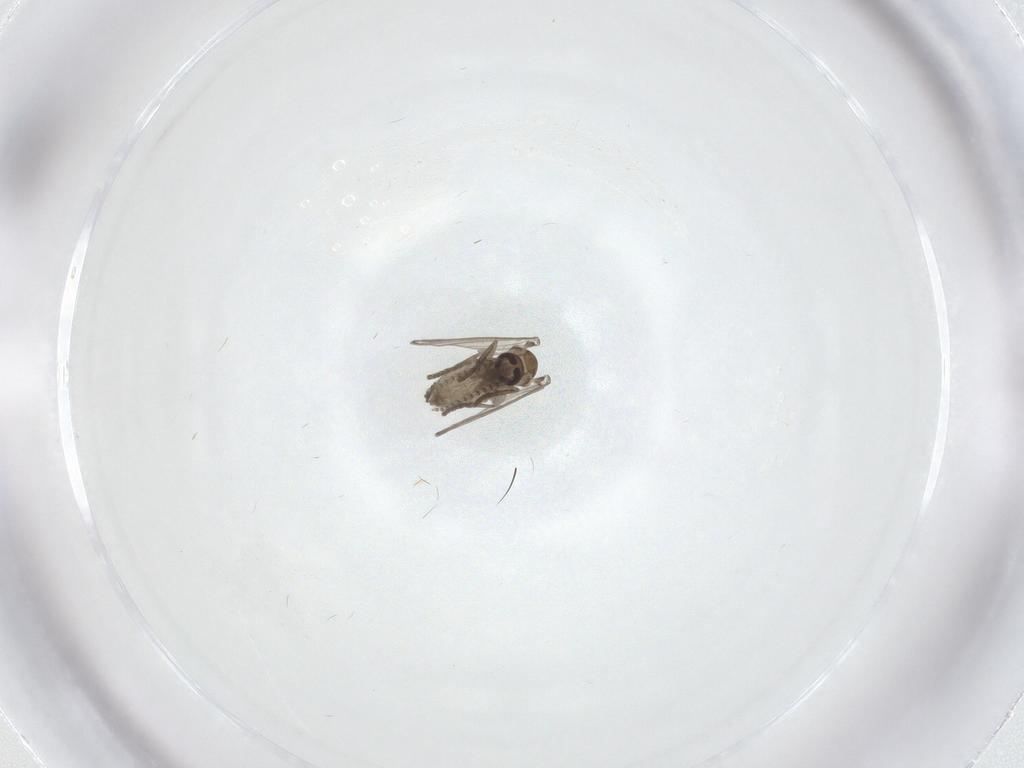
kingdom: Animalia
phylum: Arthropoda
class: Insecta
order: Diptera
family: Psychodidae
